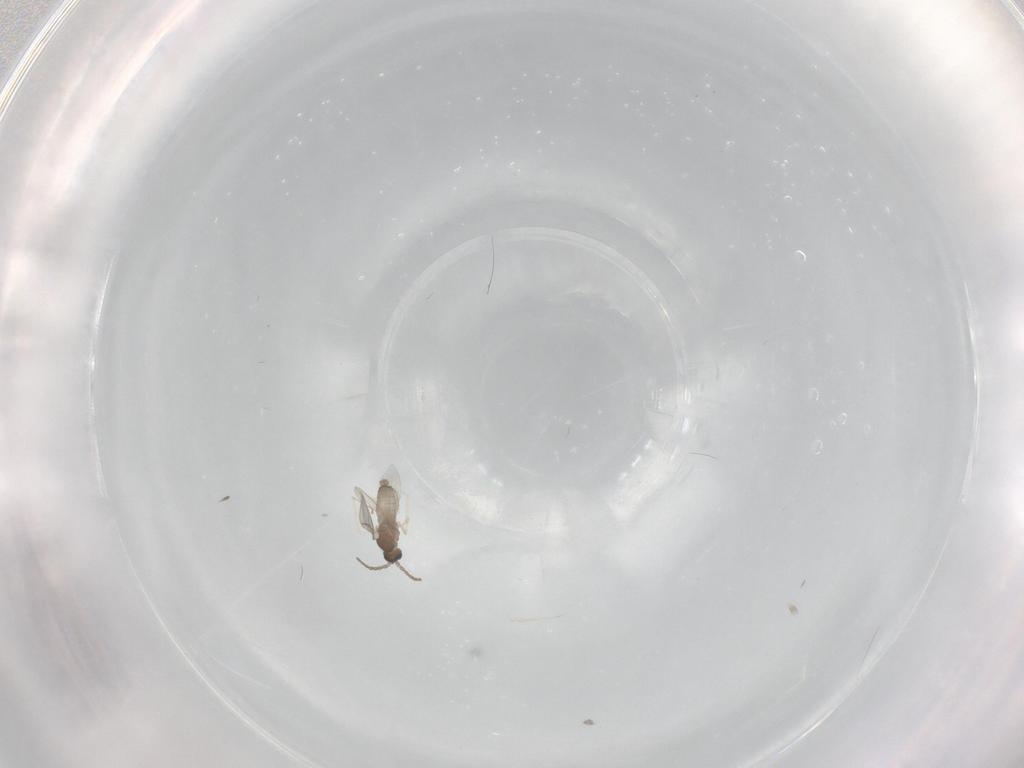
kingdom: Animalia
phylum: Arthropoda
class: Insecta
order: Diptera
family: Cecidomyiidae
